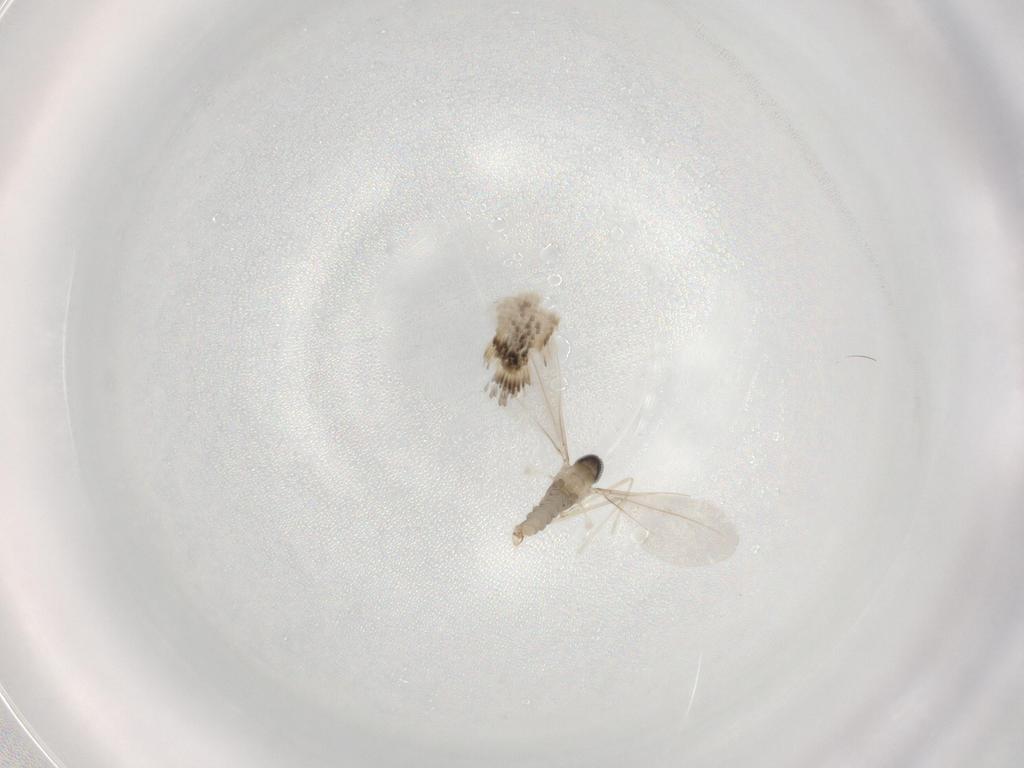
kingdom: Animalia
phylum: Arthropoda
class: Insecta
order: Diptera
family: Cecidomyiidae
